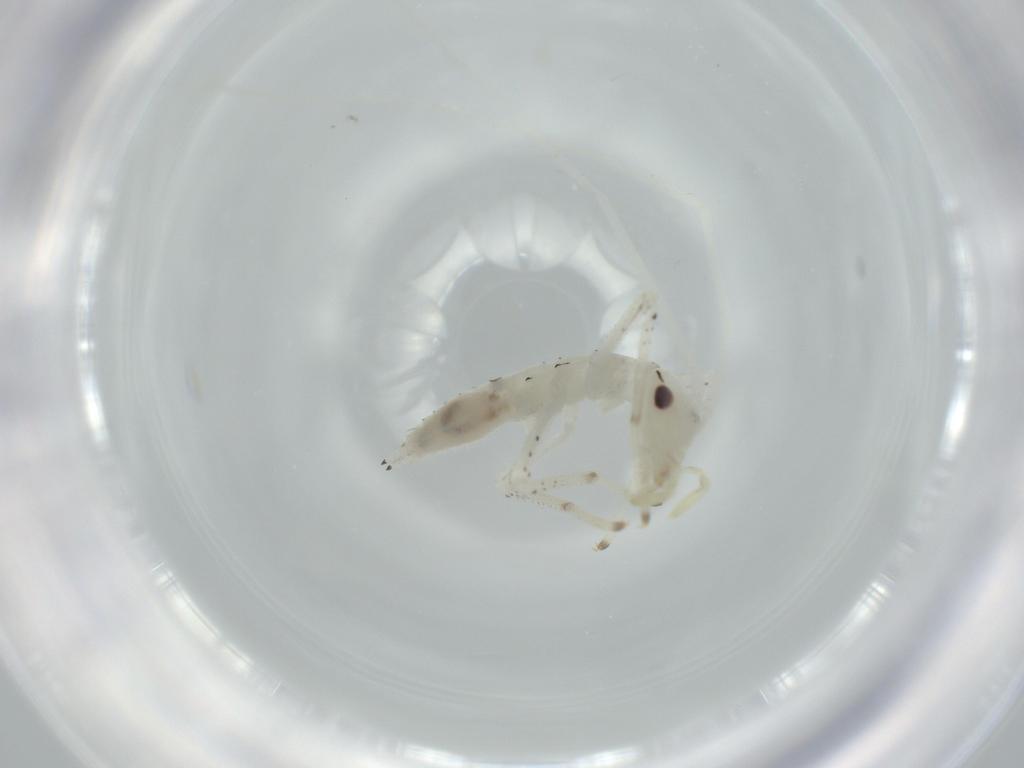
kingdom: Animalia
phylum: Arthropoda
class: Insecta
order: Orthoptera
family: Oecanthidae
